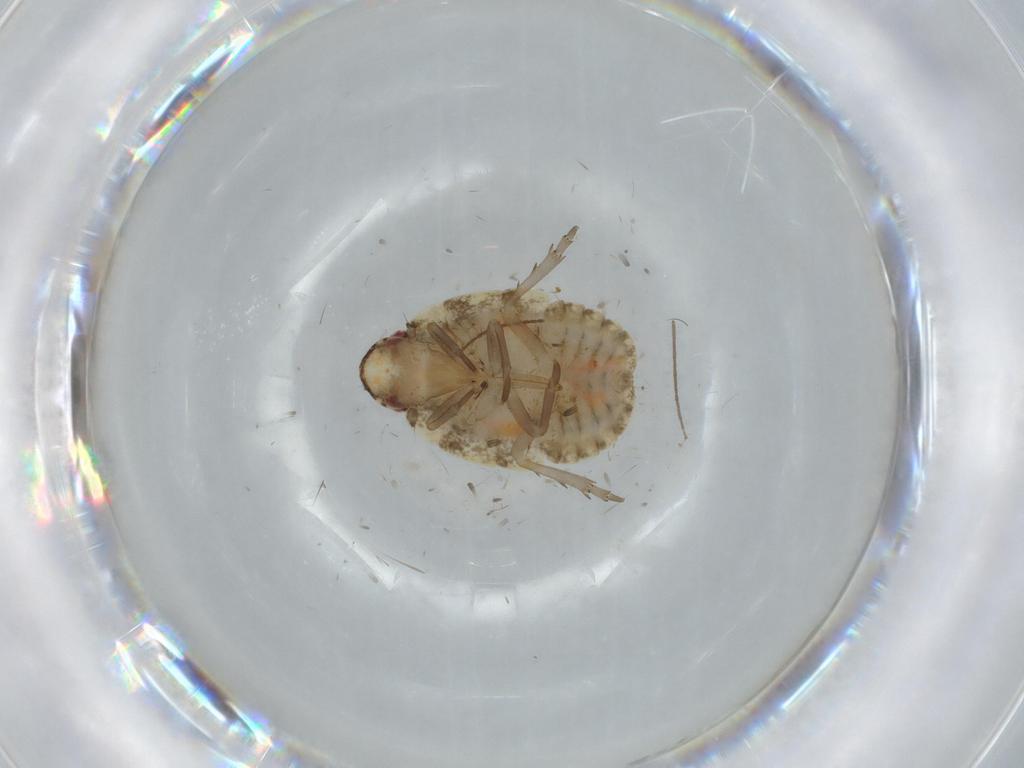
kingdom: Animalia
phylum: Arthropoda
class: Insecta
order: Hemiptera
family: Flatidae
